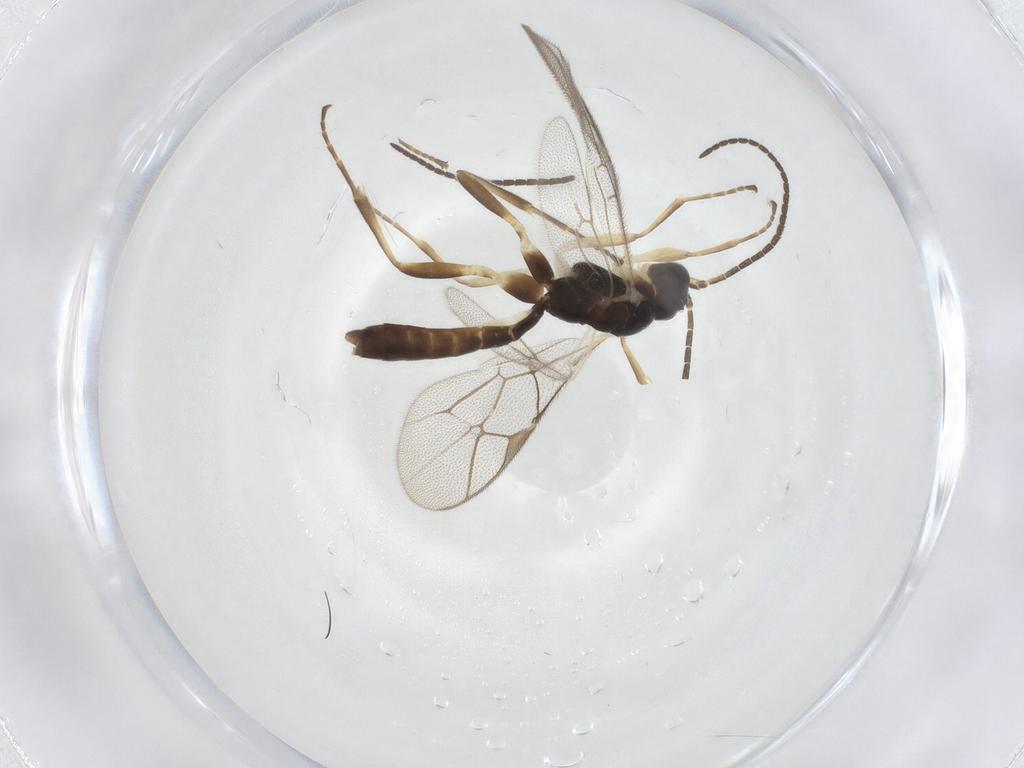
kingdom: Animalia
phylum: Arthropoda
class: Insecta
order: Hymenoptera
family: Ichneumonidae
